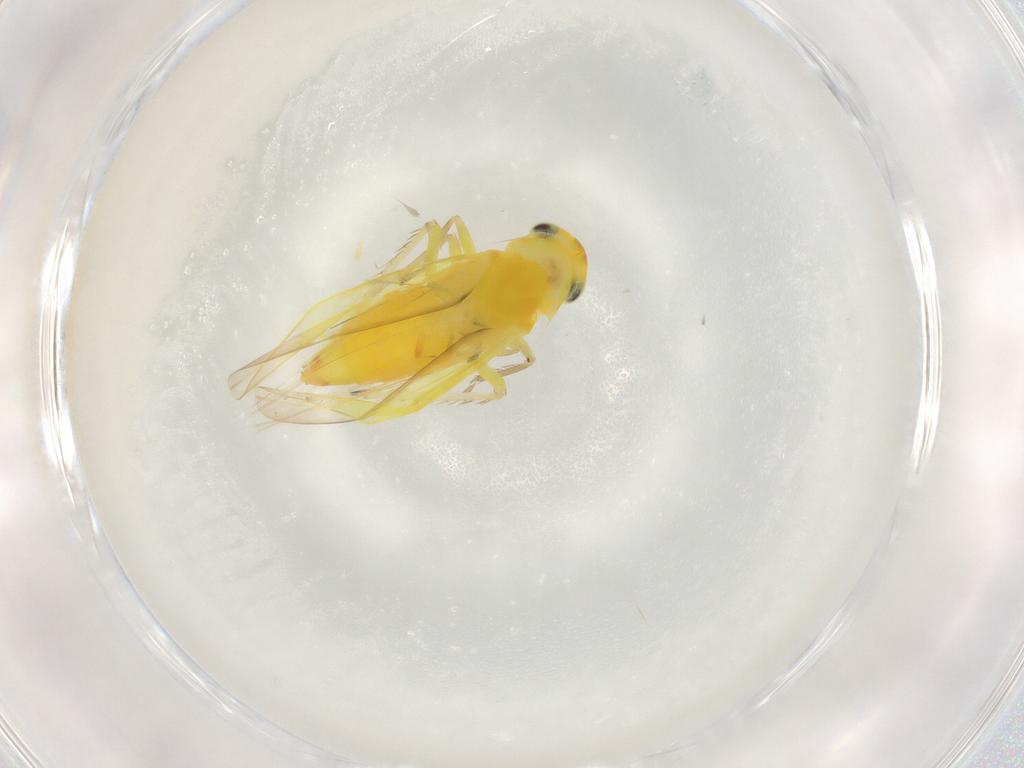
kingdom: Animalia
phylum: Arthropoda
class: Insecta
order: Hemiptera
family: Cicadellidae
